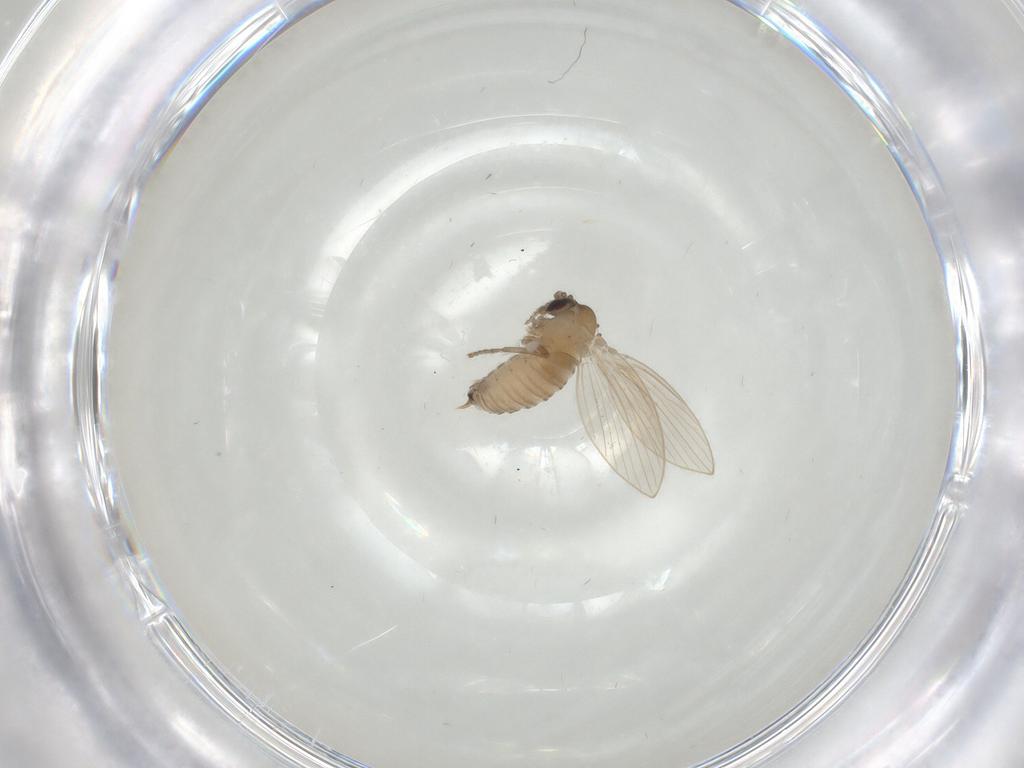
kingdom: Animalia
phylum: Arthropoda
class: Insecta
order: Diptera
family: Psychodidae
